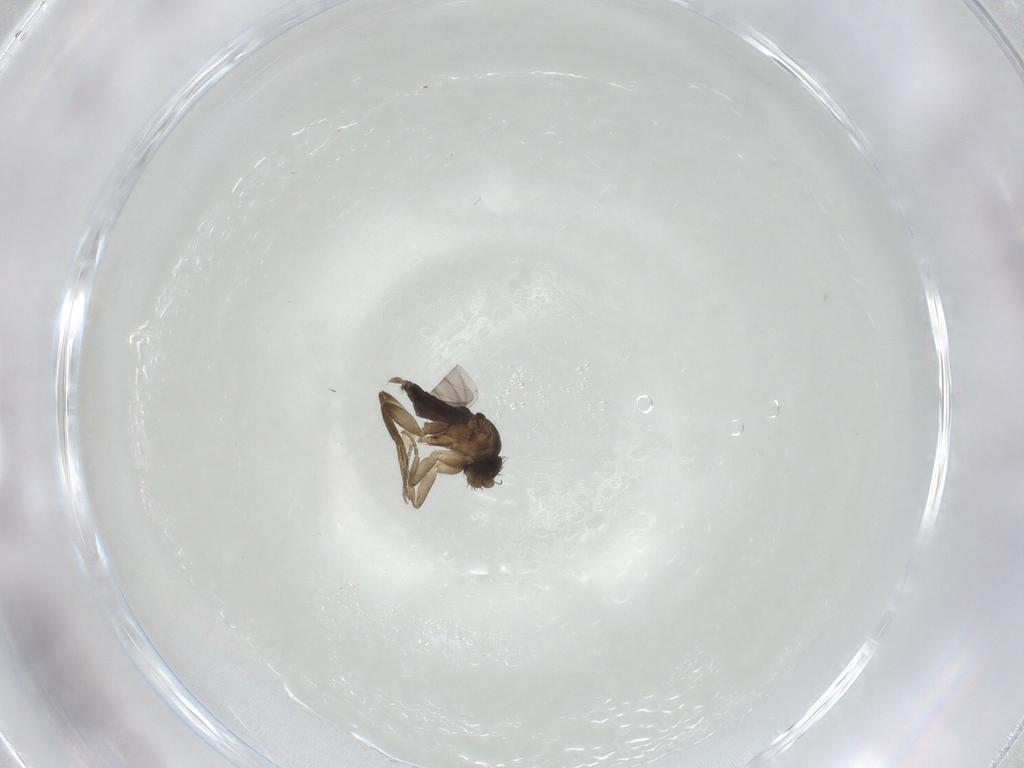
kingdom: Animalia
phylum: Arthropoda
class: Insecta
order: Diptera
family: Phoridae
